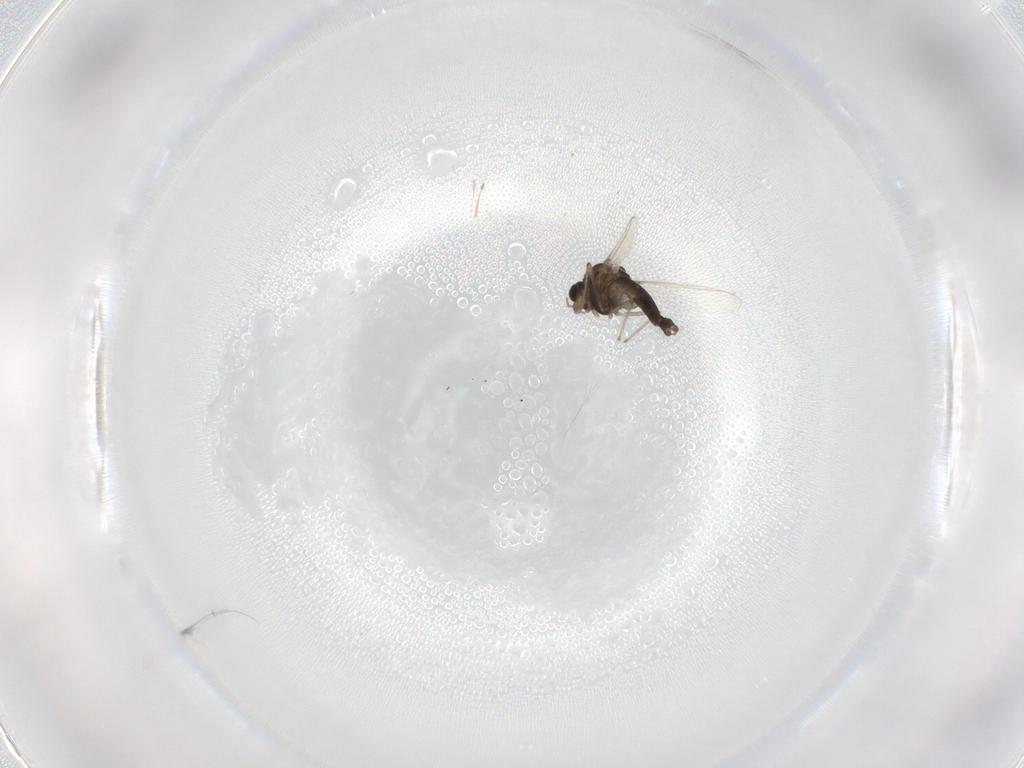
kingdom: Animalia
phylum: Arthropoda
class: Insecta
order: Diptera
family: Chironomidae
